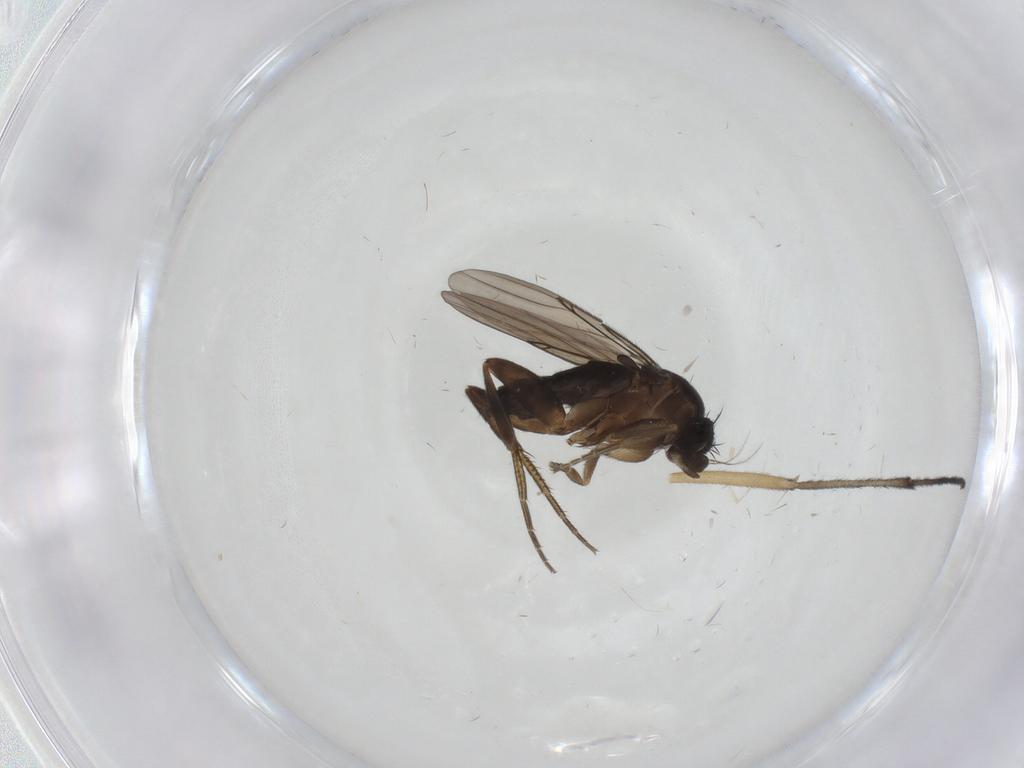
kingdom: Animalia
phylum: Arthropoda
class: Insecta
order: Diptera
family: Phoridae
